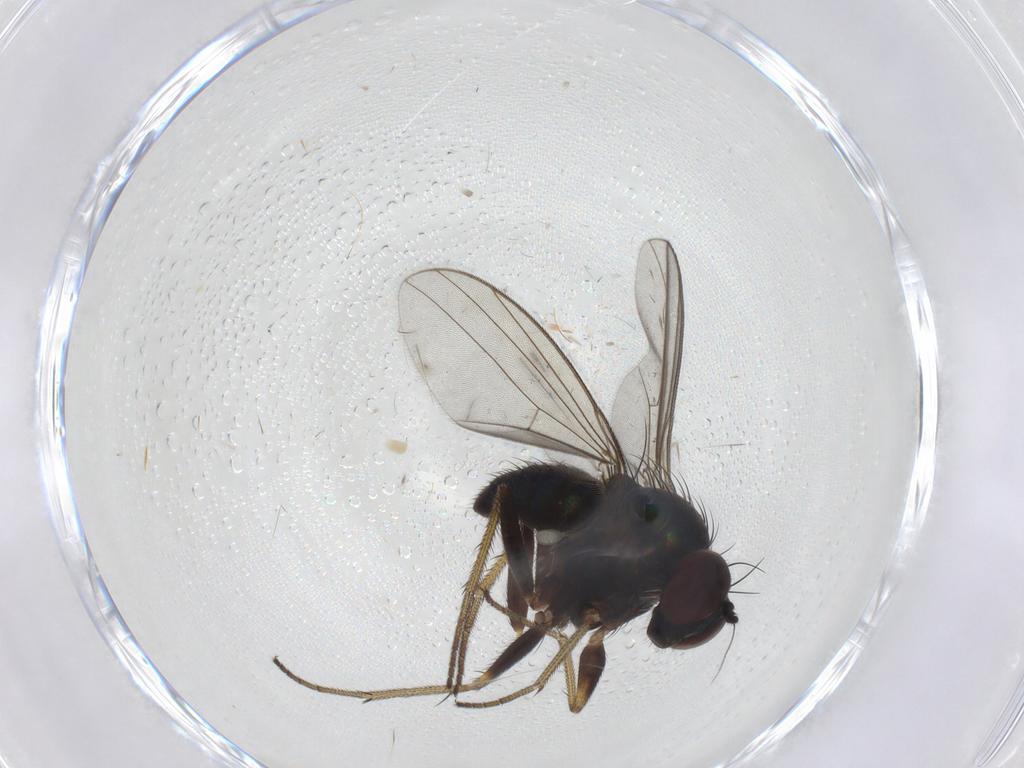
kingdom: Animalia
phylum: Arthropoda
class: Insecta
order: Diptera
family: Dolichopodidae
